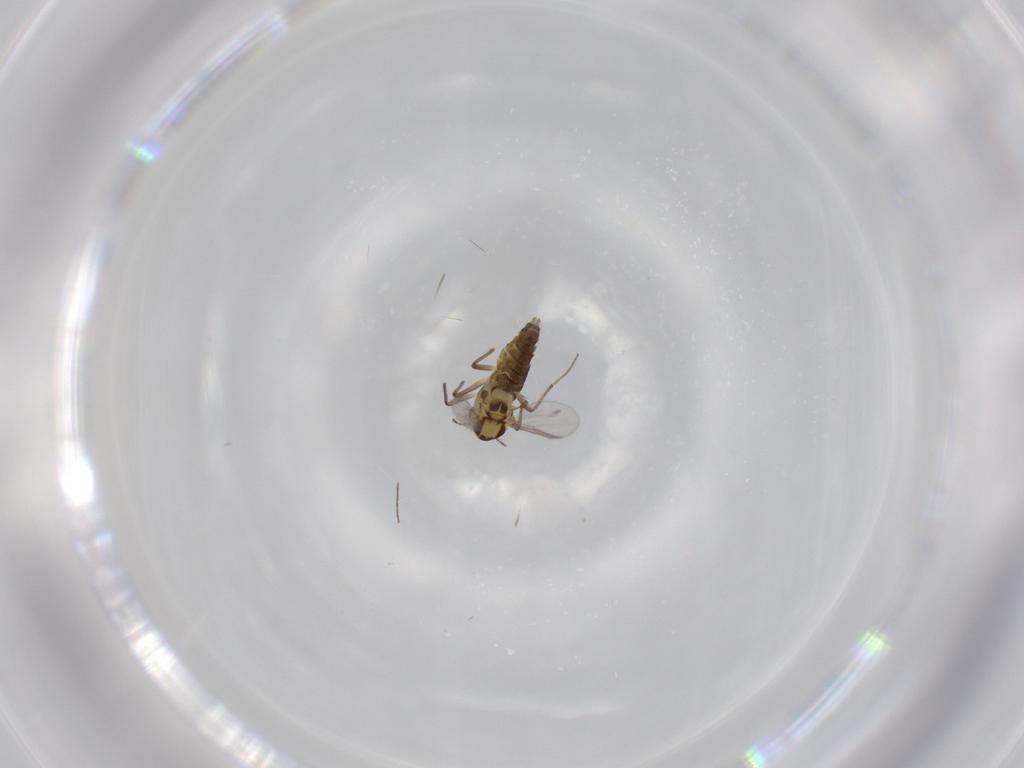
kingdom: Animalia
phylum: Arthropoda
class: Insecta
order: Diptera
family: Chironomidae
